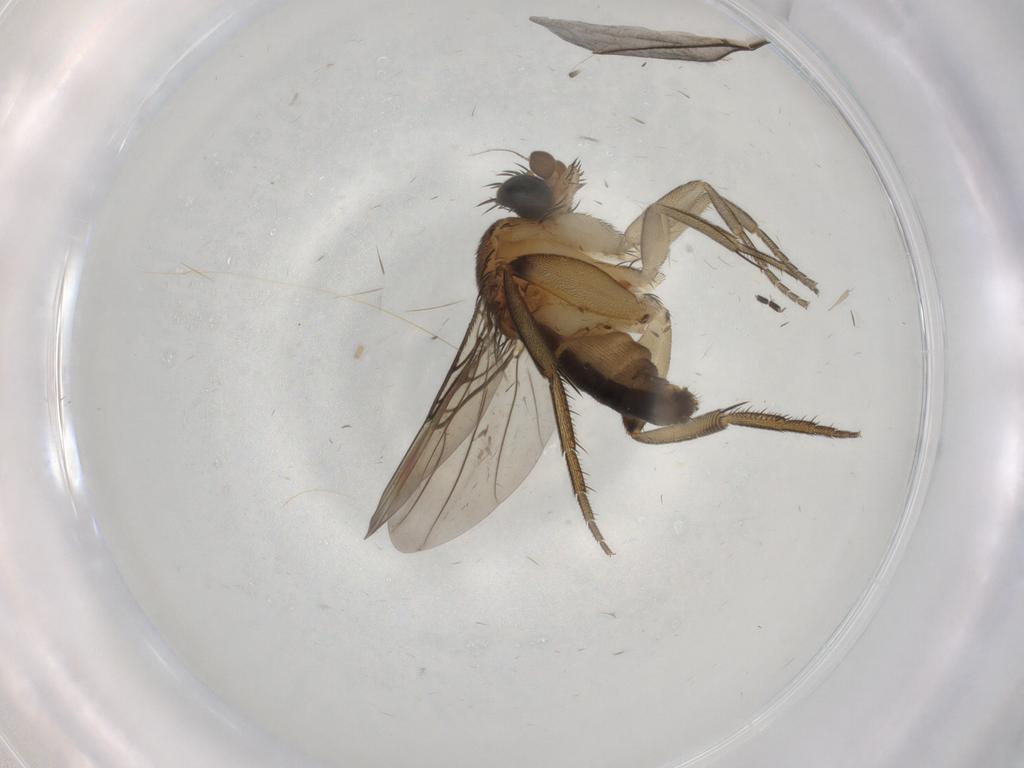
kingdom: Animalia
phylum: Arthropoda
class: Insecta
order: Diptera
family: Phoridae
